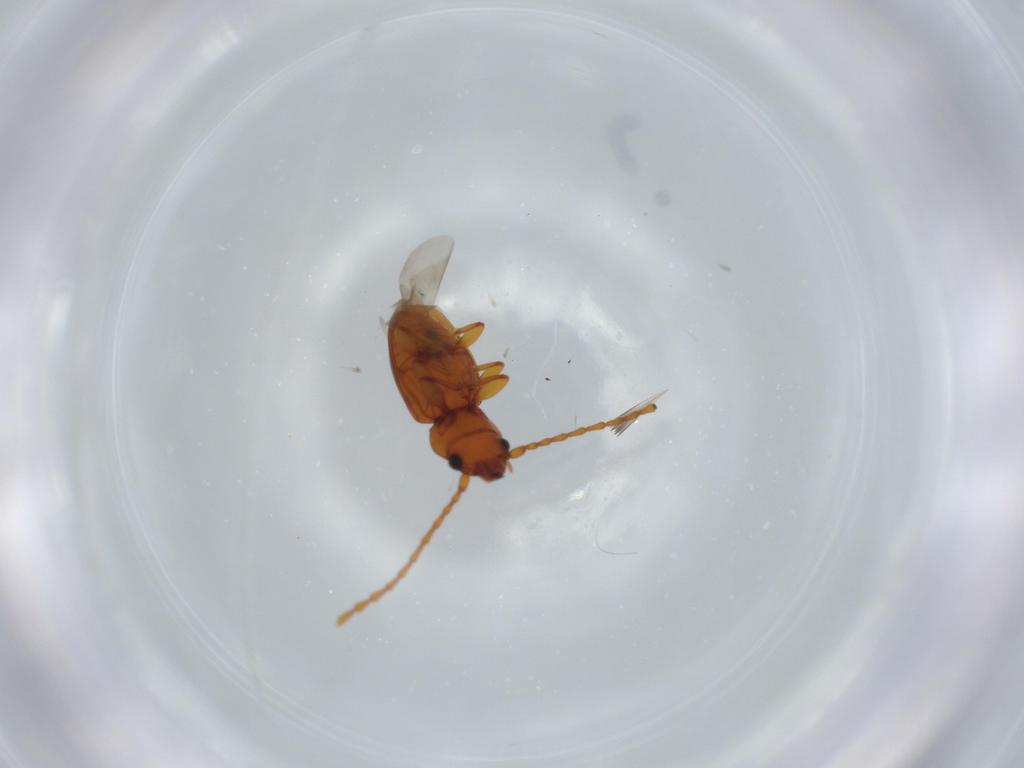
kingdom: Animalia
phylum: Arthropoda
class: Insecta
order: Coleoptera
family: Laemophloeidae
